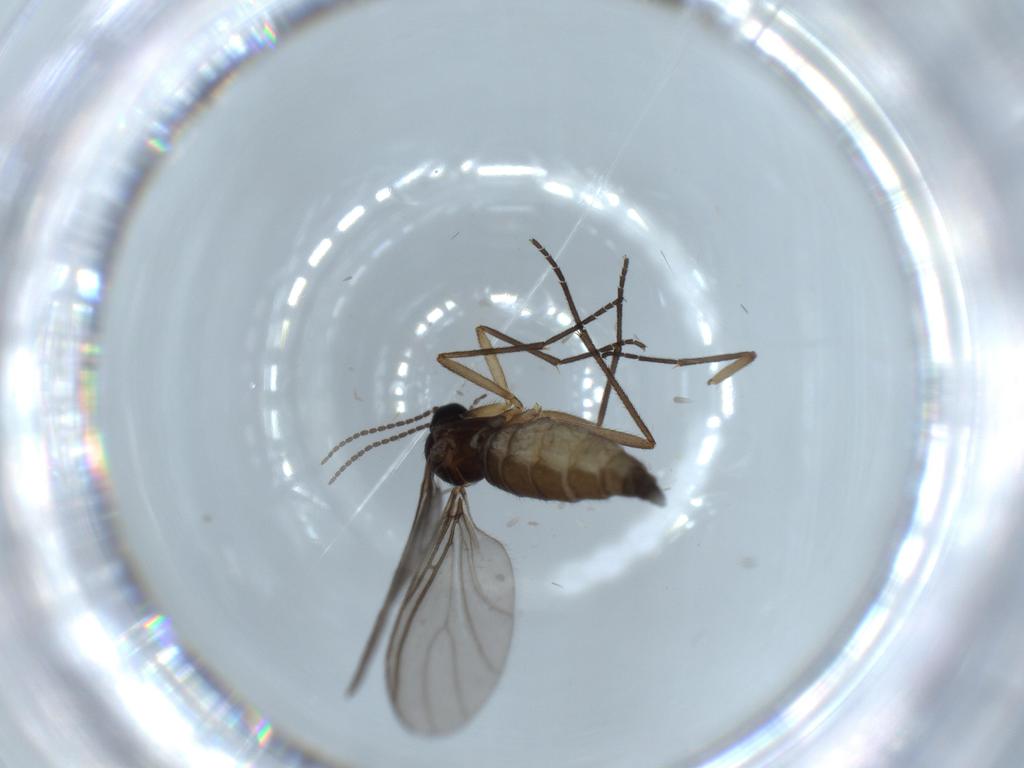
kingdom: Animalia
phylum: Arthropoda
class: Insecta
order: Diptera
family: Sciaridae
